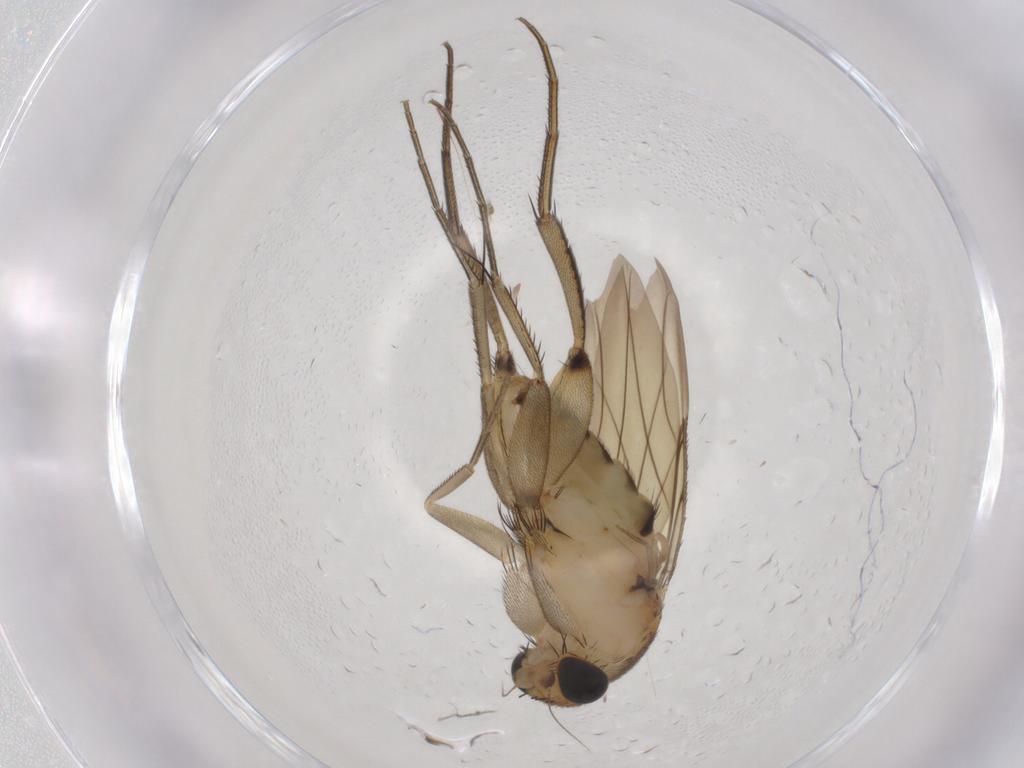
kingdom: Animalia
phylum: Arthropoda
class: Insecta
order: Diptera
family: Phoridae
